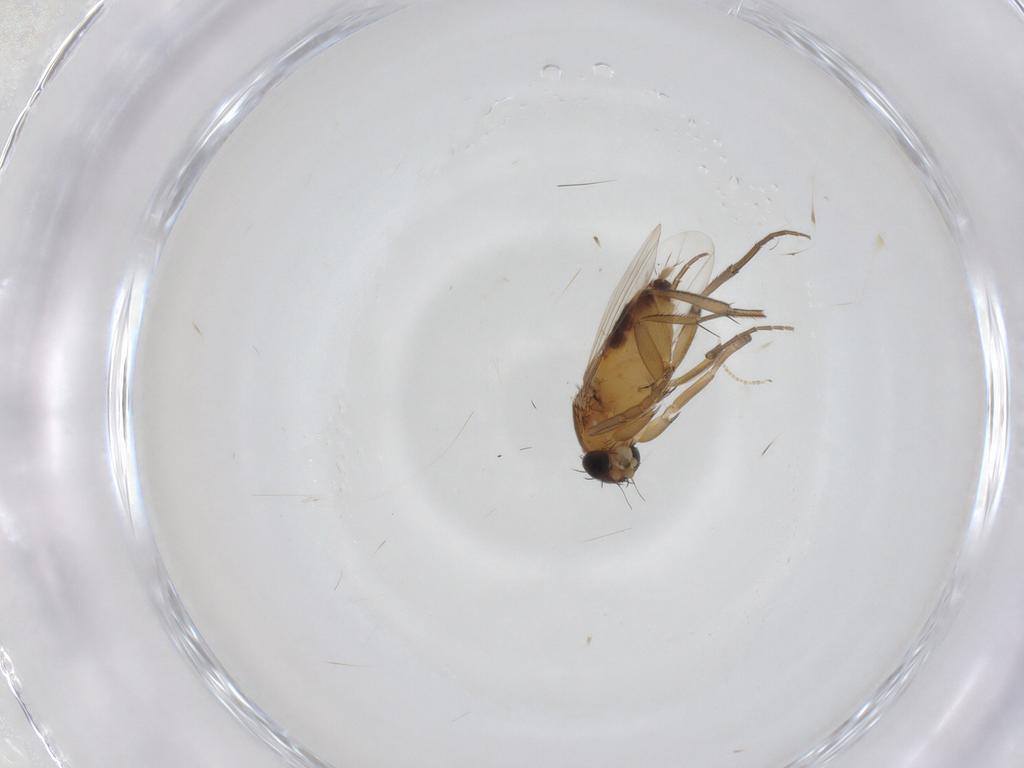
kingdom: Animalia
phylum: Arthropoda
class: Insecta
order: Diptera
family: Phoridae
